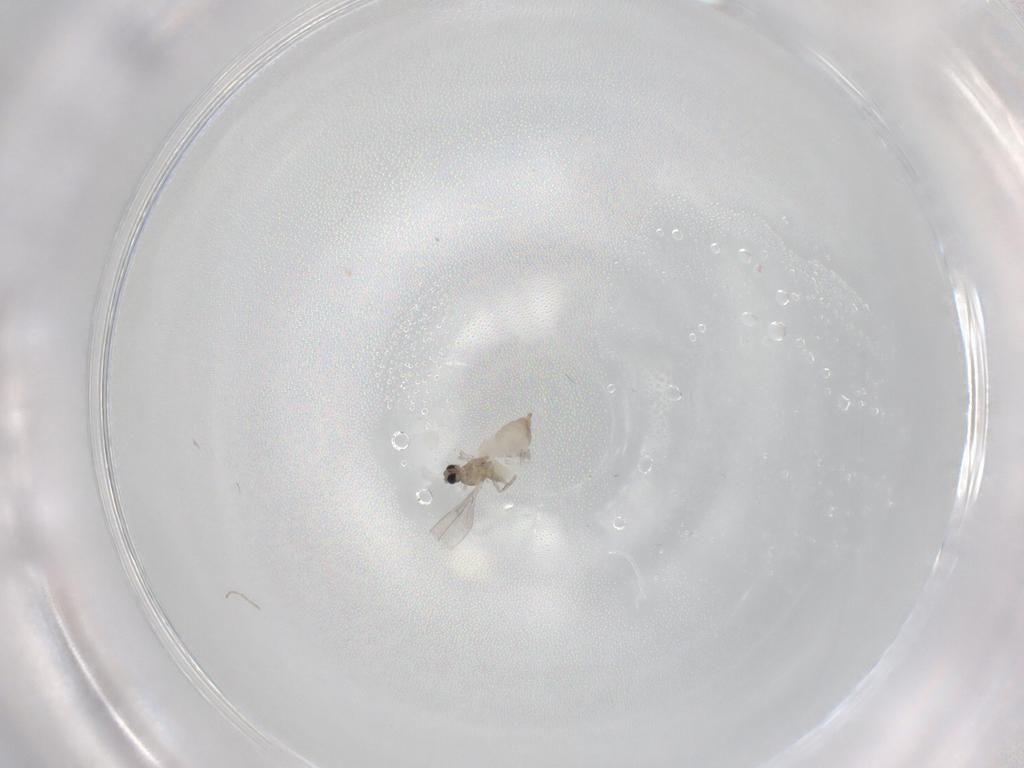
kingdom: Animalia
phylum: Arthropoda
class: Insecta
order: Diptera
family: Cecidomyiidae
